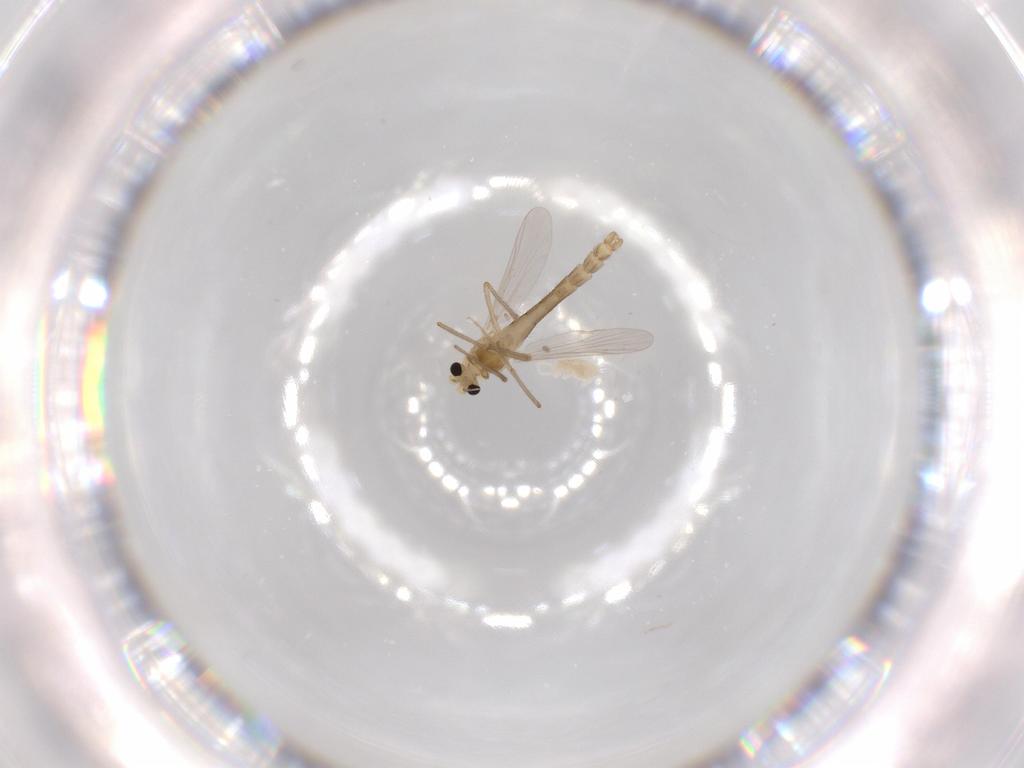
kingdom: Animalia
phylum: Arthropoda
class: Insecta
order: Diptera
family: Chironomidae
